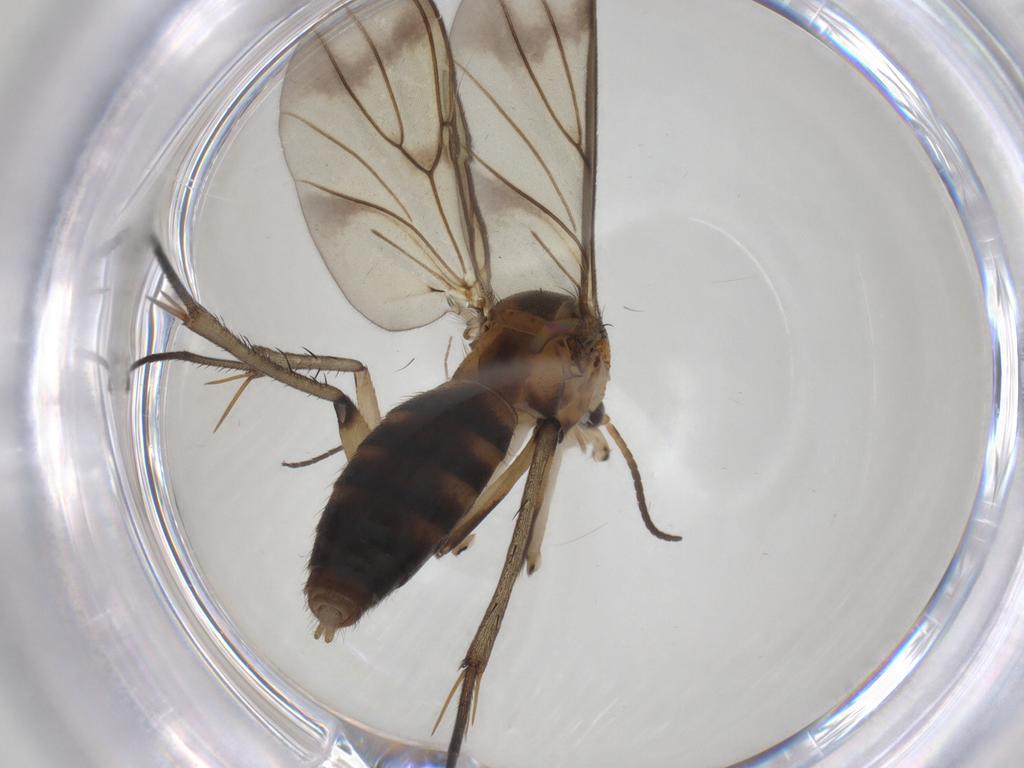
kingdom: Animalia
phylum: Arthropoda
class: Insecta
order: Diptera
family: Mycetophilidae
